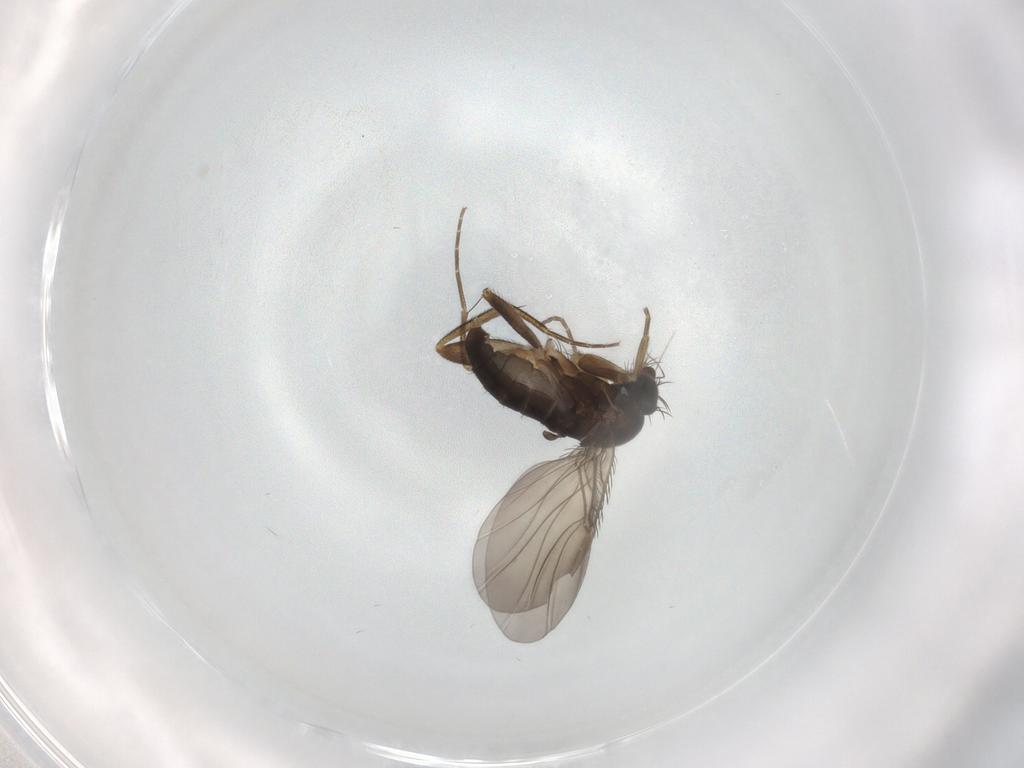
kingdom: Animalia
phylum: Arthropoda
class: Insecta
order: Diptera
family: Phoridae
